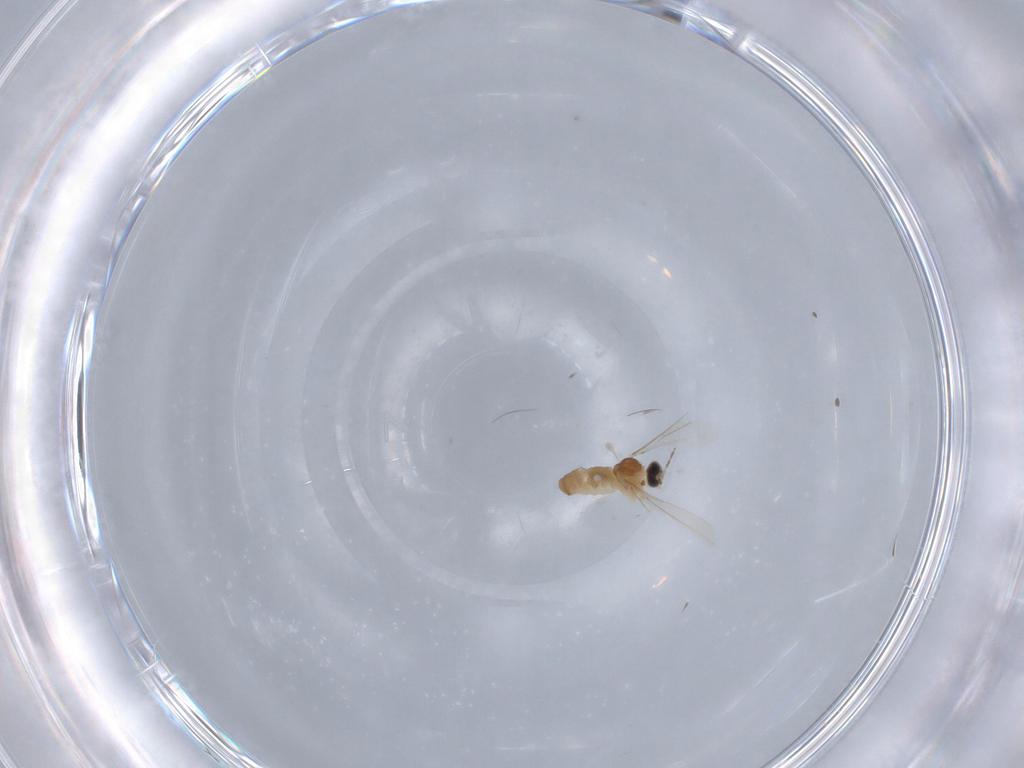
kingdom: Animalia
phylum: Arthropoda
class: Insecta
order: Diptera
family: Cecidomyiidae
